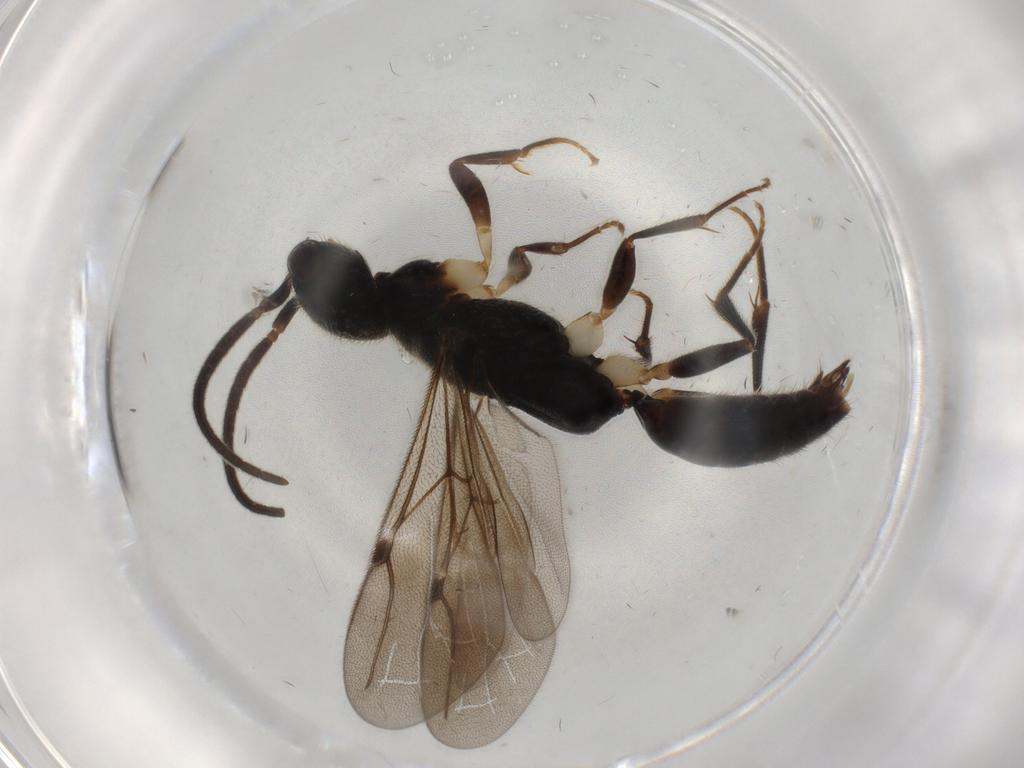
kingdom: Animalia
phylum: Arthropoda
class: Insecta
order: Hymenoptera
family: Bethylidae
